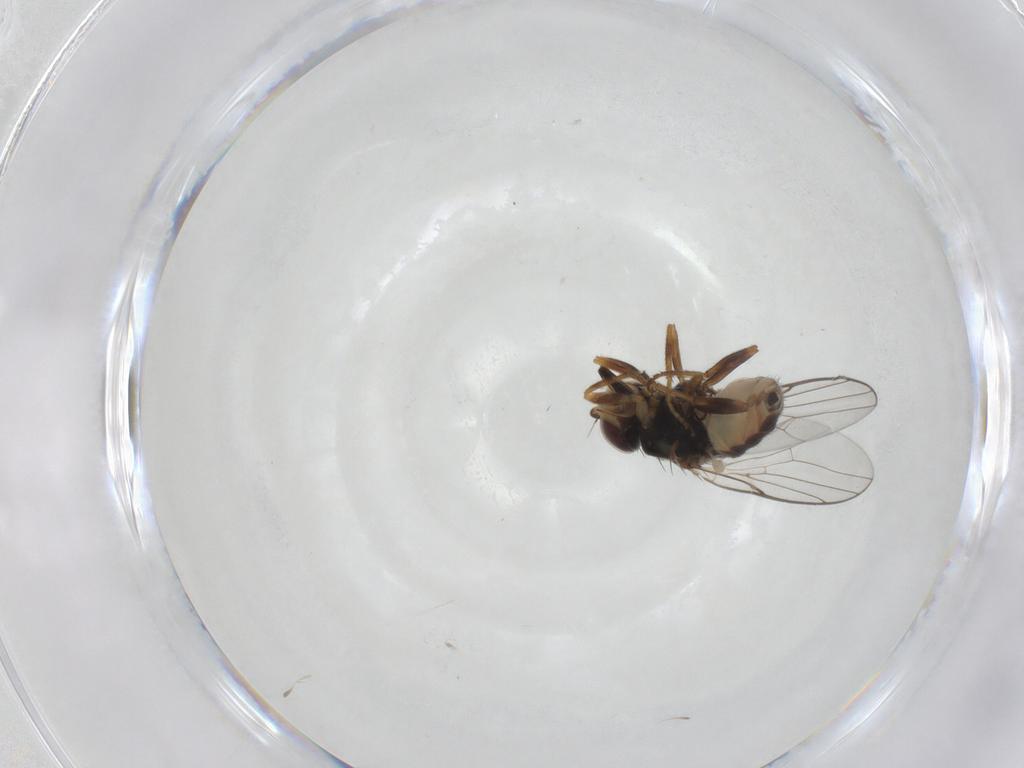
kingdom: Animalia
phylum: Arthropoda
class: Insecta
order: Diptera
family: Chloropidae
